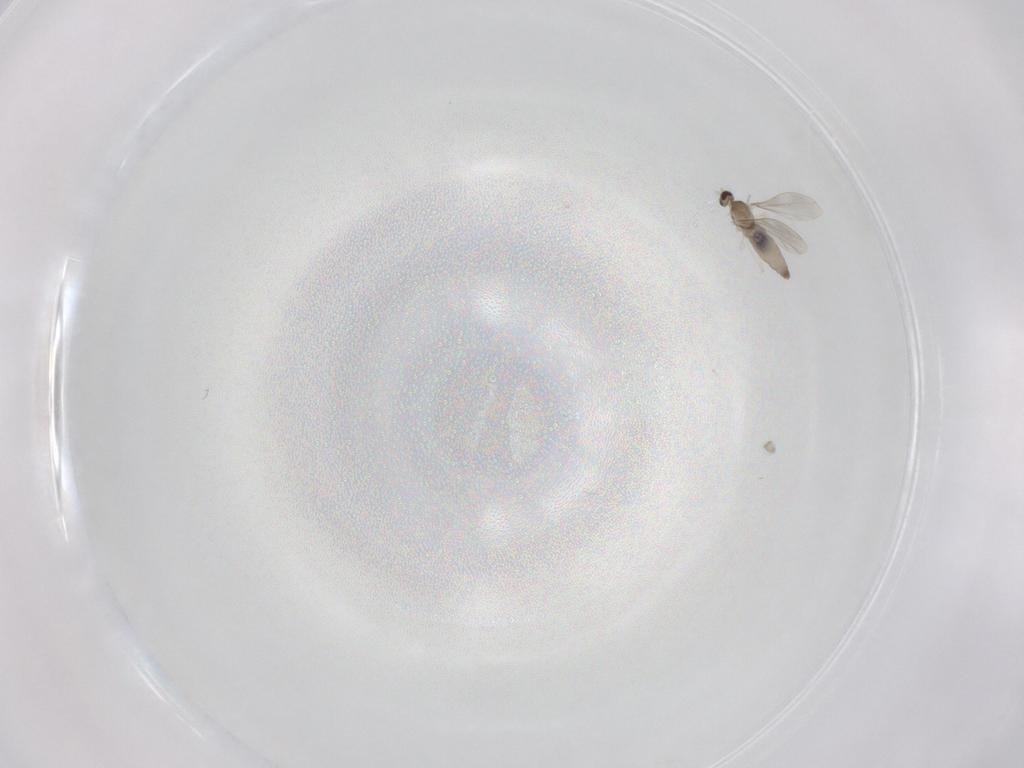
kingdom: Animalia
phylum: Arthropoda
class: Insecta
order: Diptera
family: Cecidomyiidae
